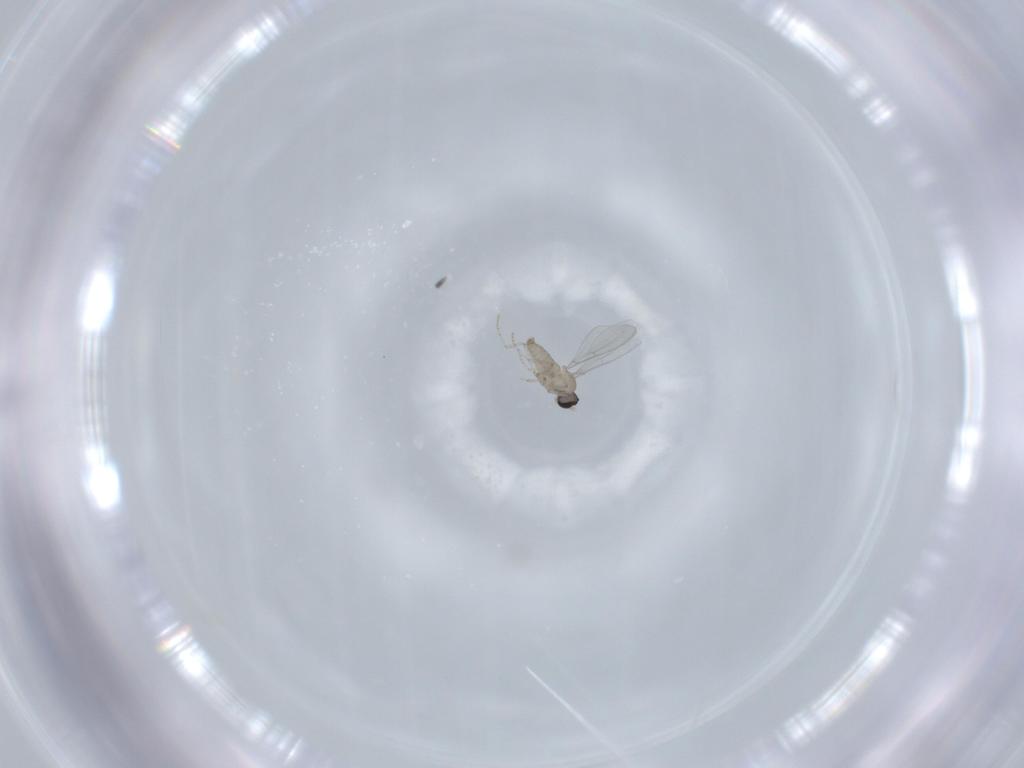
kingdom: Animalia
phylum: Arthropoda
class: Insecta
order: Diptera
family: Cecidomyiidae
